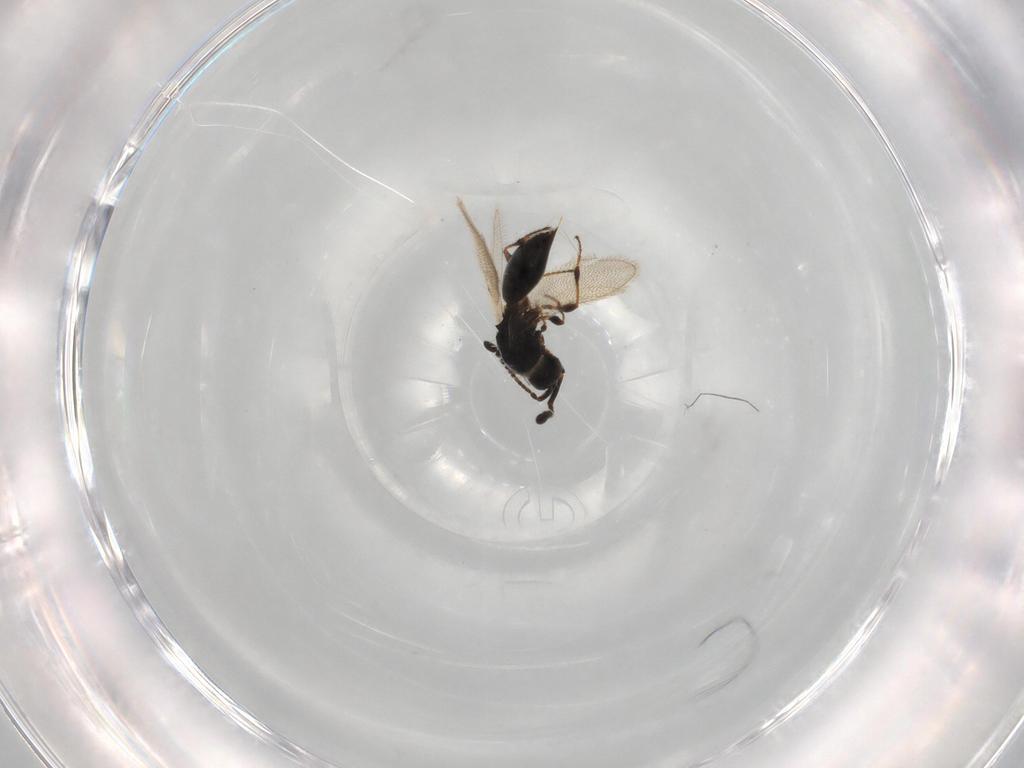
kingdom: Animalia
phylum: Arthropoda
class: Insecta
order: Hymenoptera
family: Diapriidae
